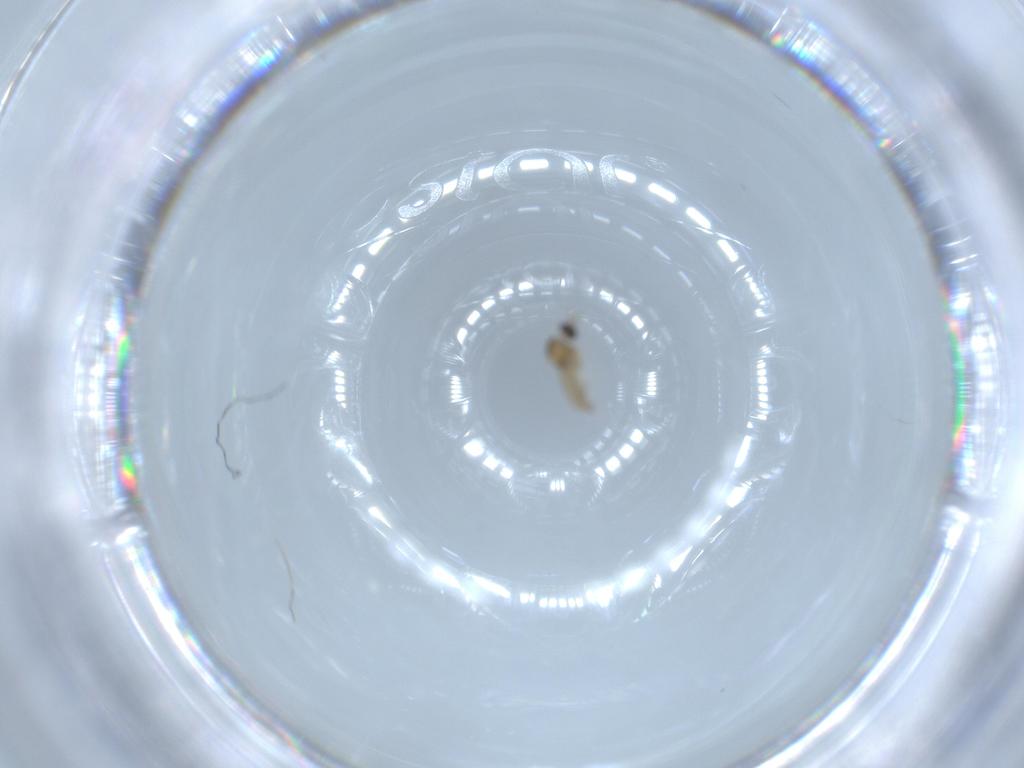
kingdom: Animalia
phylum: Arthropoda
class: Insecta
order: Diptera
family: Cecidomyiidae
